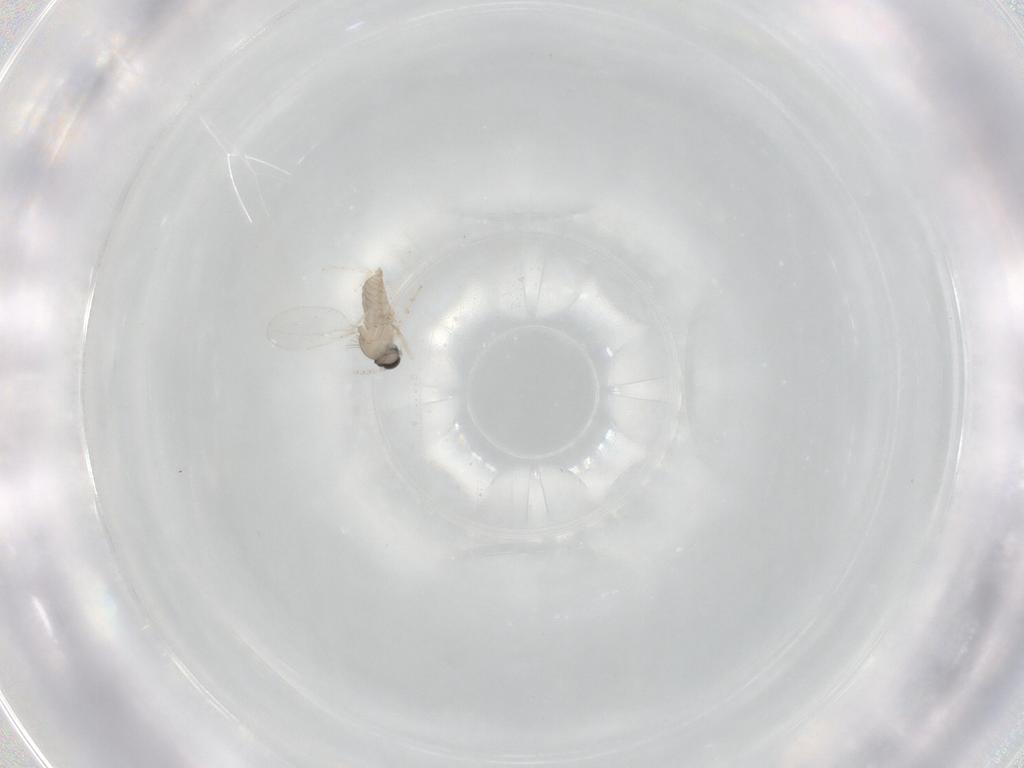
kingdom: Animalia
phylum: Arthropoda
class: Insecta
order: Diptera
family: Cecidomyiidae
